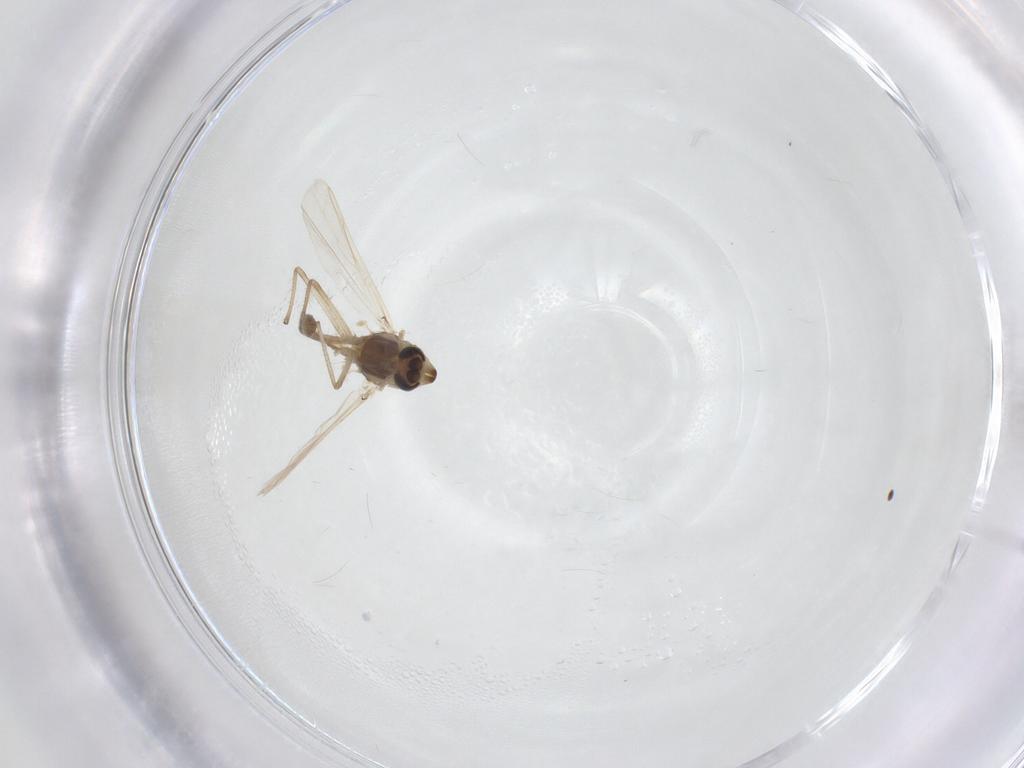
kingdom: Animalia
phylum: Arthropoda
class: Insecta
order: Diptera
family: Chironomidae
